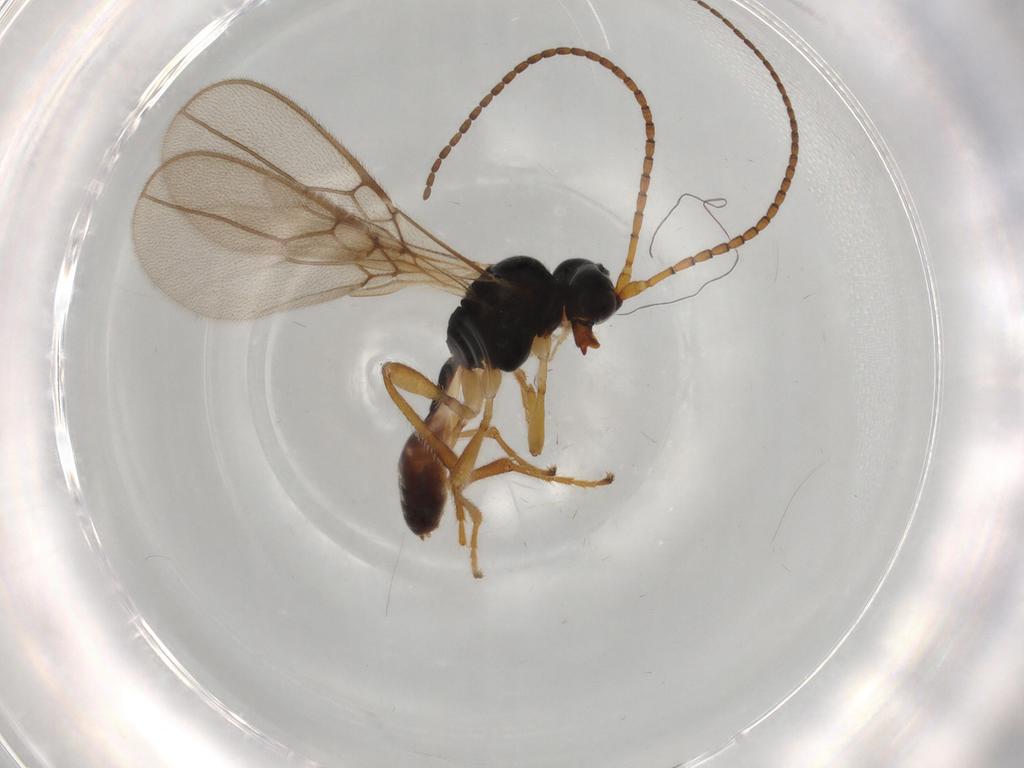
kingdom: Animalia
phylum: Arthropoda
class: Insecta
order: Hymenoptera
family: Braconidae
